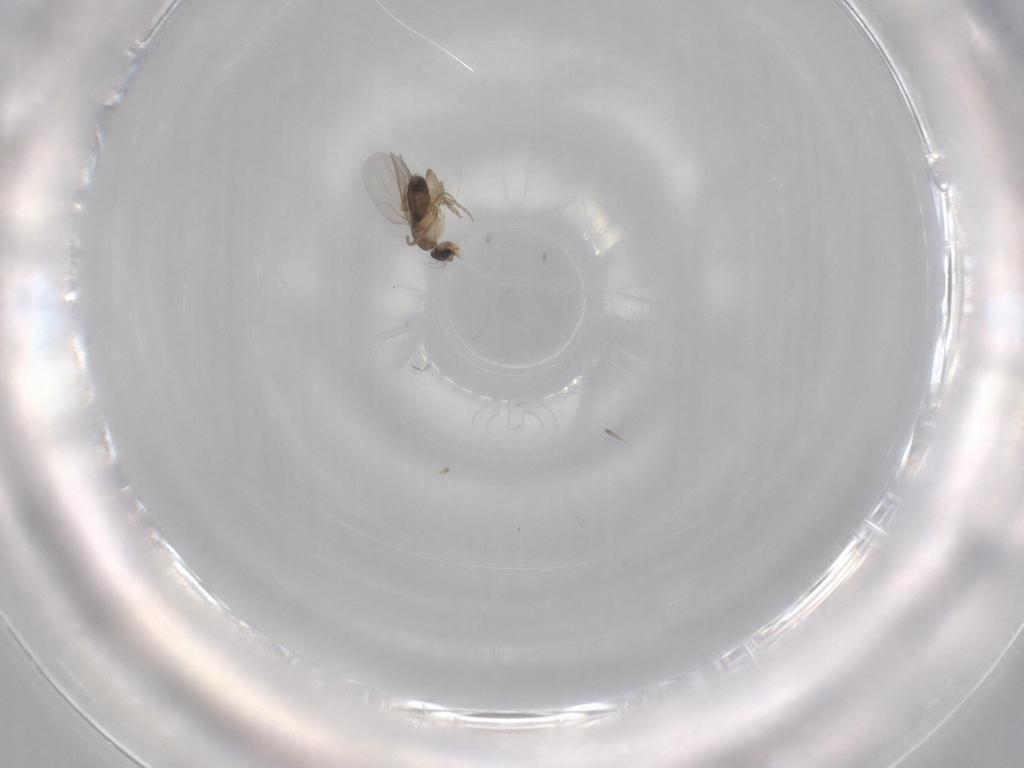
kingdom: Animalia
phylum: Arthropoda
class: Insecta
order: Diptera
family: Phoridae
